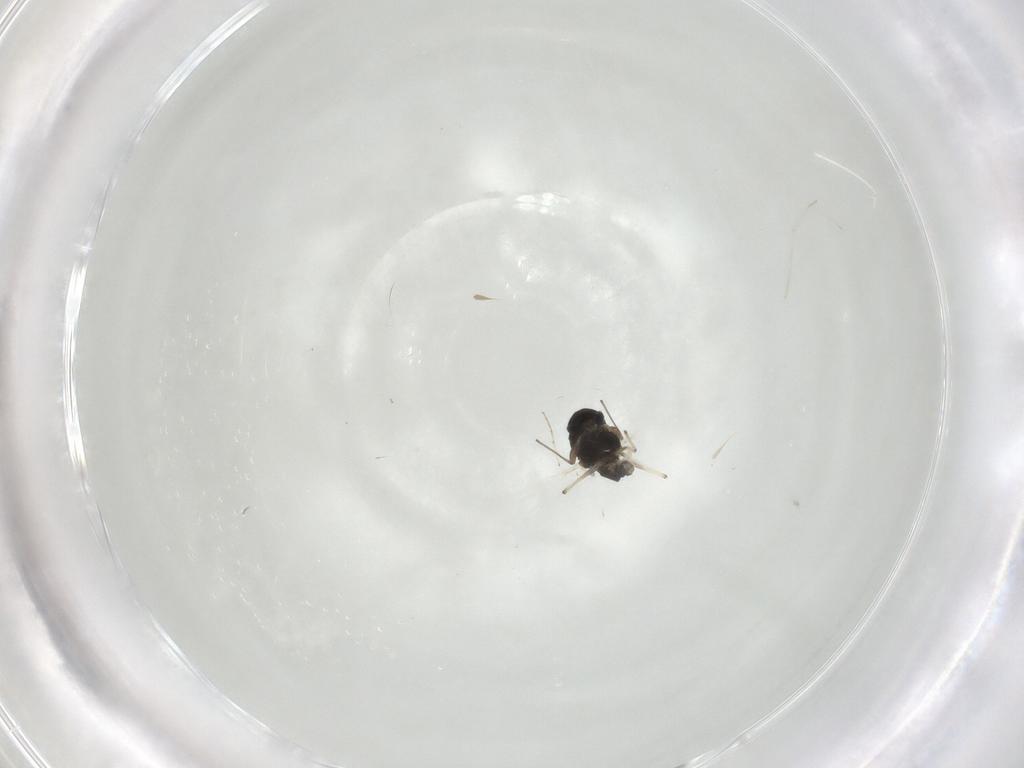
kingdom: Animalia
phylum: Arthropoda
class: Insecta
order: Diptera
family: Chironomidae
